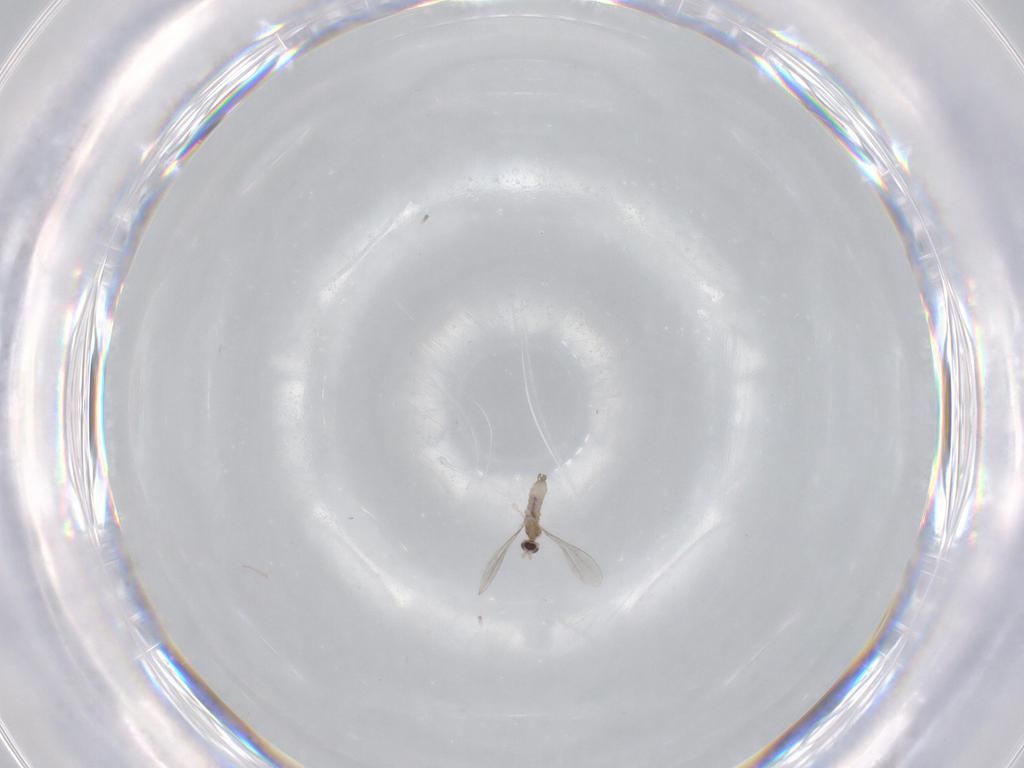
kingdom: Animalia
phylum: Arthropoda
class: Insecta
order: Diptera
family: Cecidomyiidae
